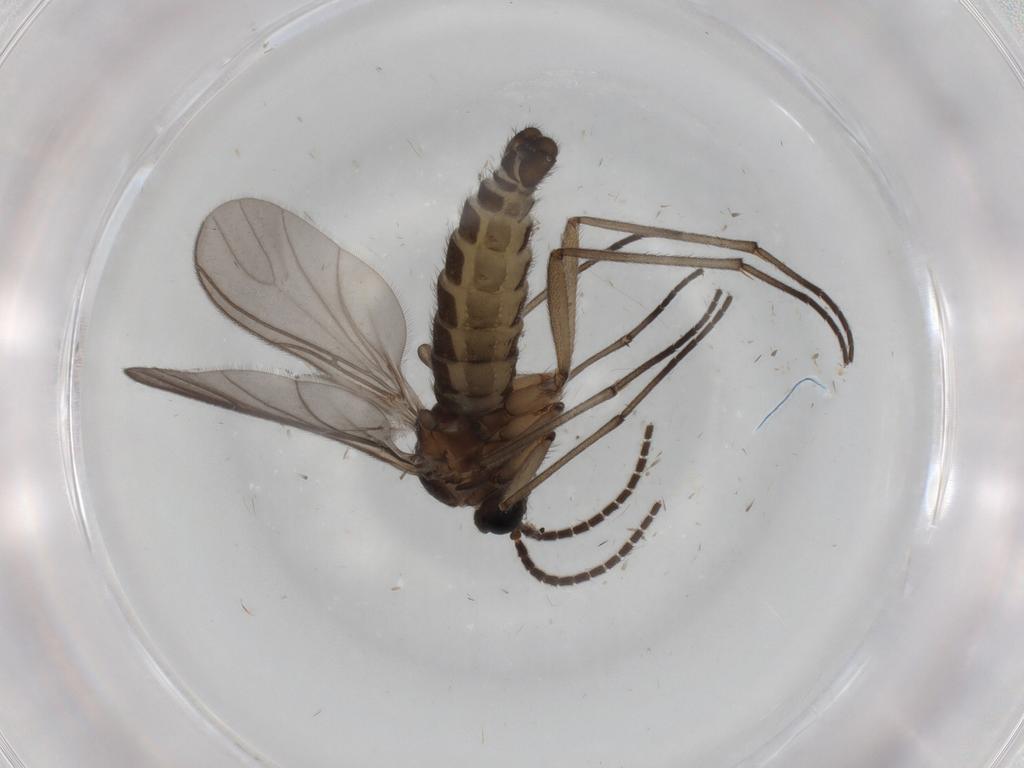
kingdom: Animalia
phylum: Arthropoda
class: Insecta
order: Diptera
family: Sciaridae
